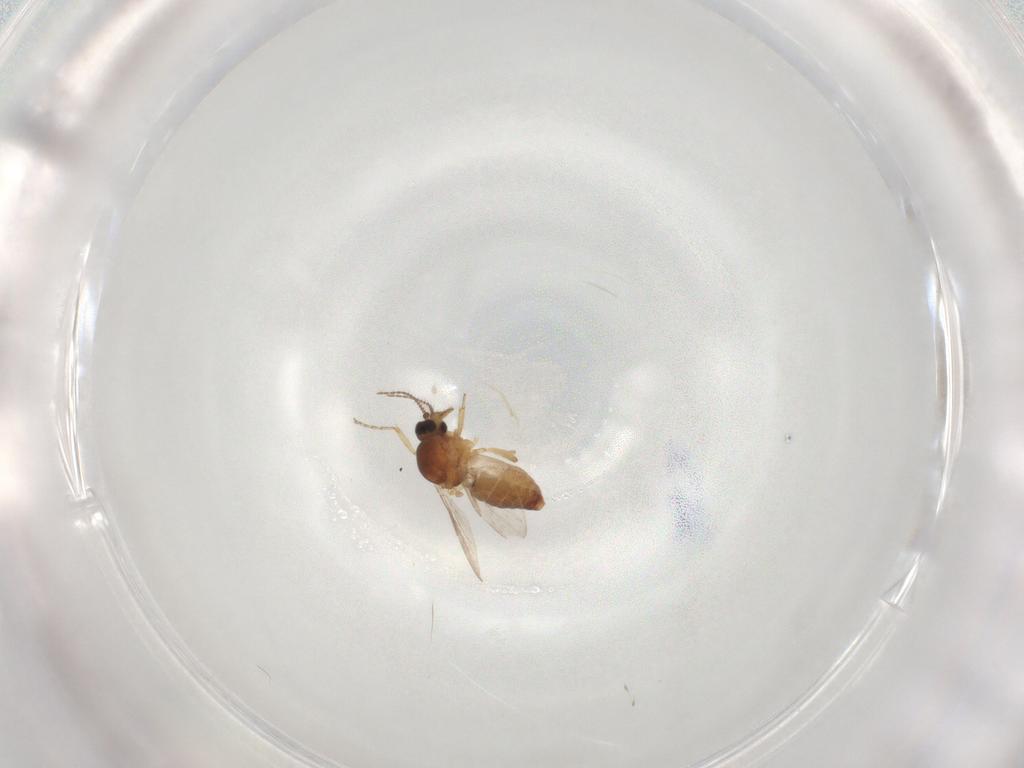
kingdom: Animalia
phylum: Arthropoda
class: Insecta
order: Diptera
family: Ceratopogonidae
